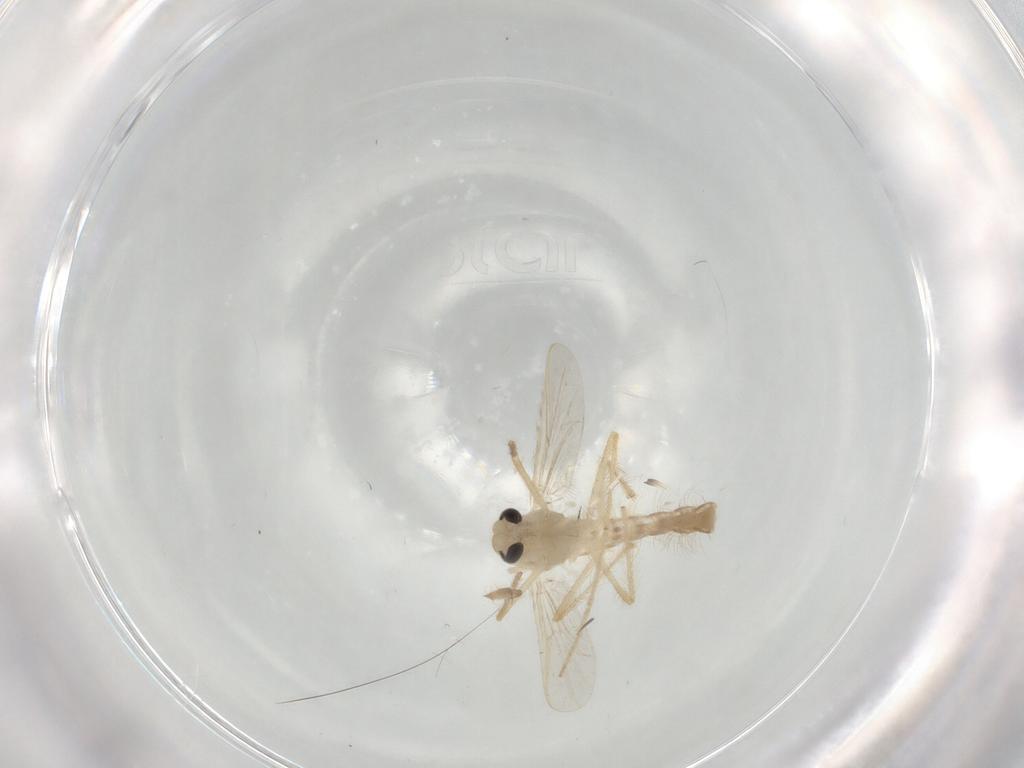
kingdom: Animalia
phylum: Arthropoda
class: Insecta
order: Diptera
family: Chironomidae
